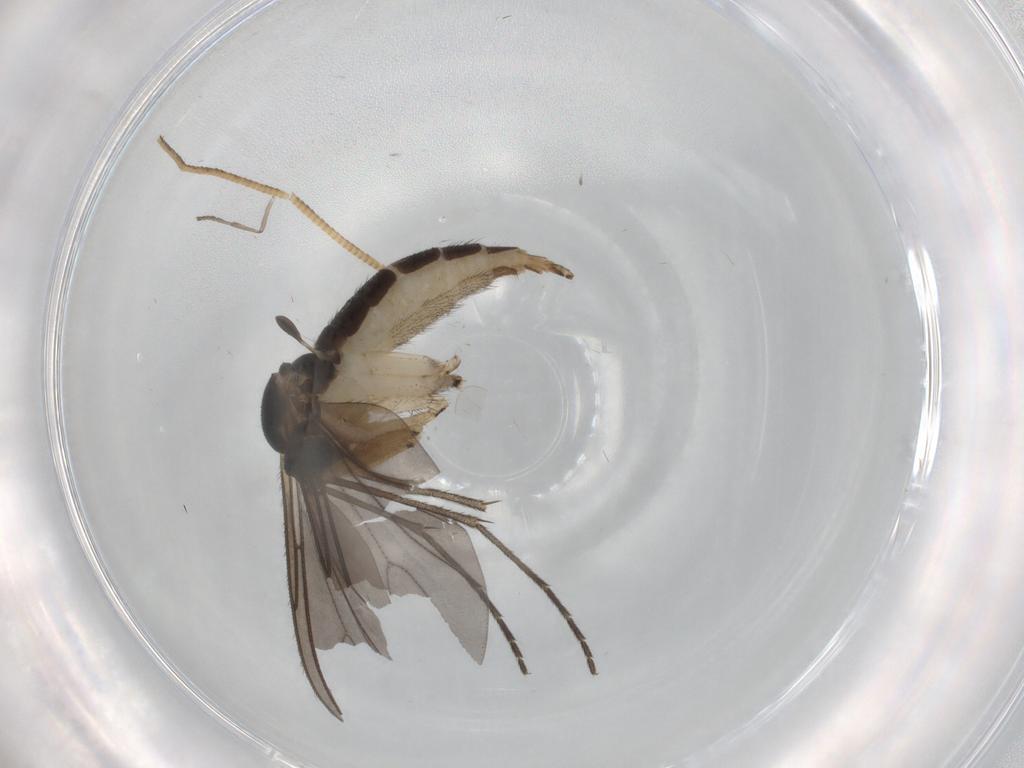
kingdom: Animalia
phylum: Arthropoda
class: Insecta
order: Diptera
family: Sciaridae
